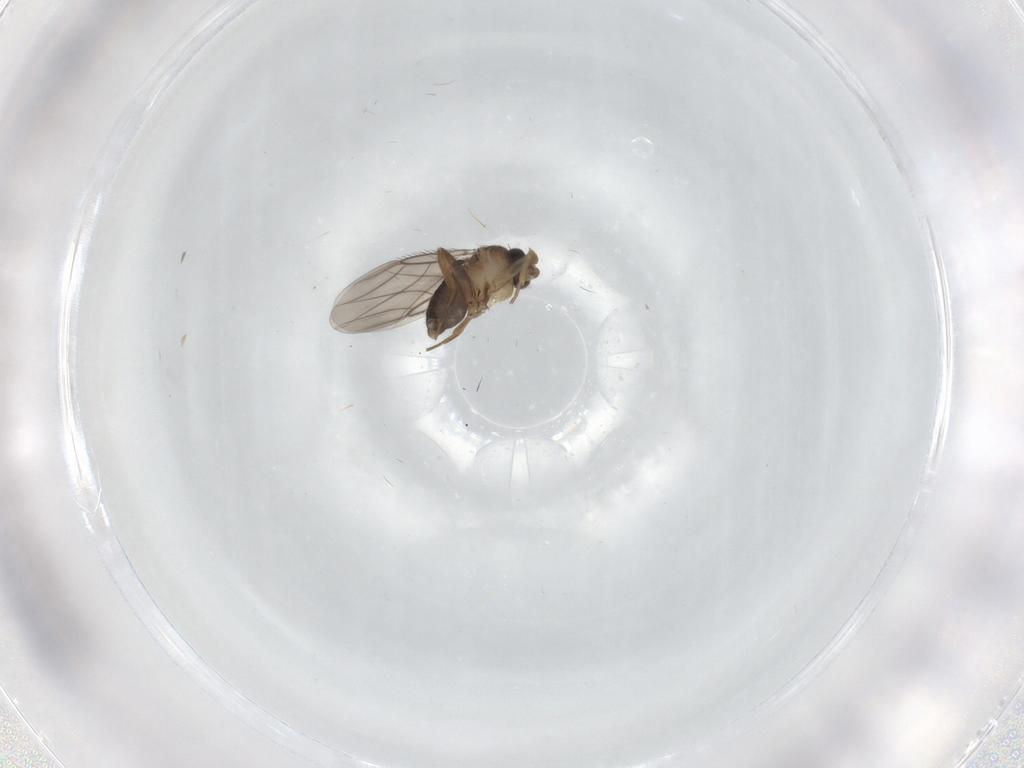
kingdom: Animalia
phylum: Arthropoda
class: Insecta
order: Diptera
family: Phoridae
